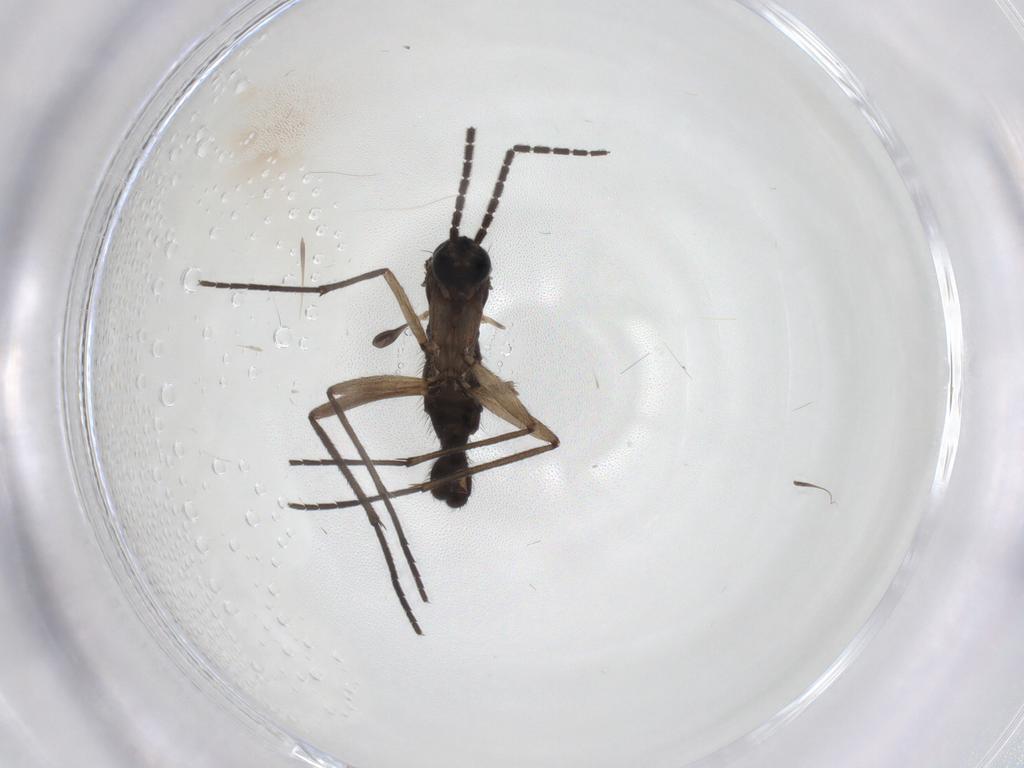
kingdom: Animalia
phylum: Arthropoda
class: Insecta
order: Diptera
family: Sciaridae
